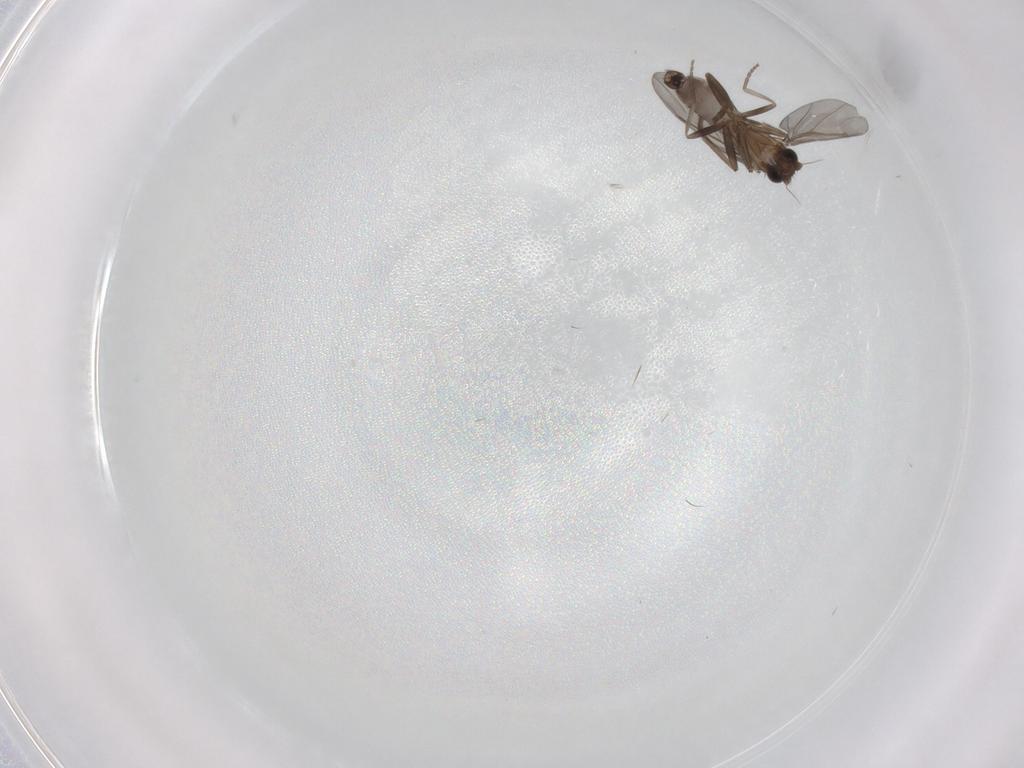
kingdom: Animalia
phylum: Arthropoda
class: Insecta
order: Diptera
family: Phoridae
